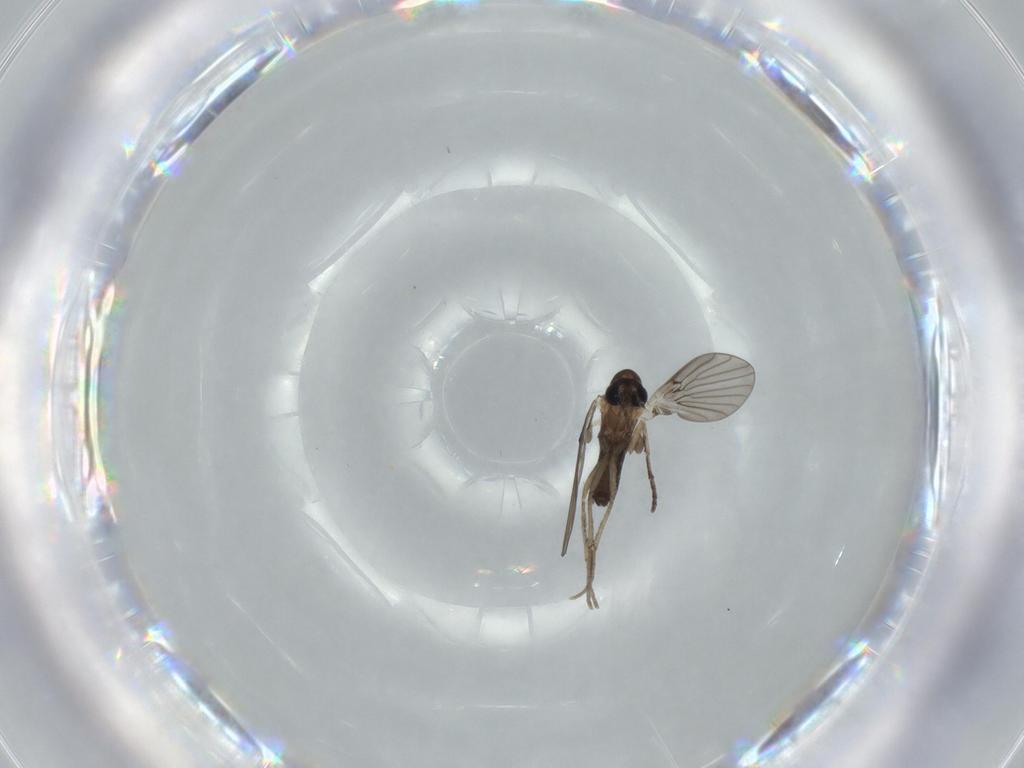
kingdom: Animalia
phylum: Arthropoda
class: Insecta
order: Diptera
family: Psychodidae
